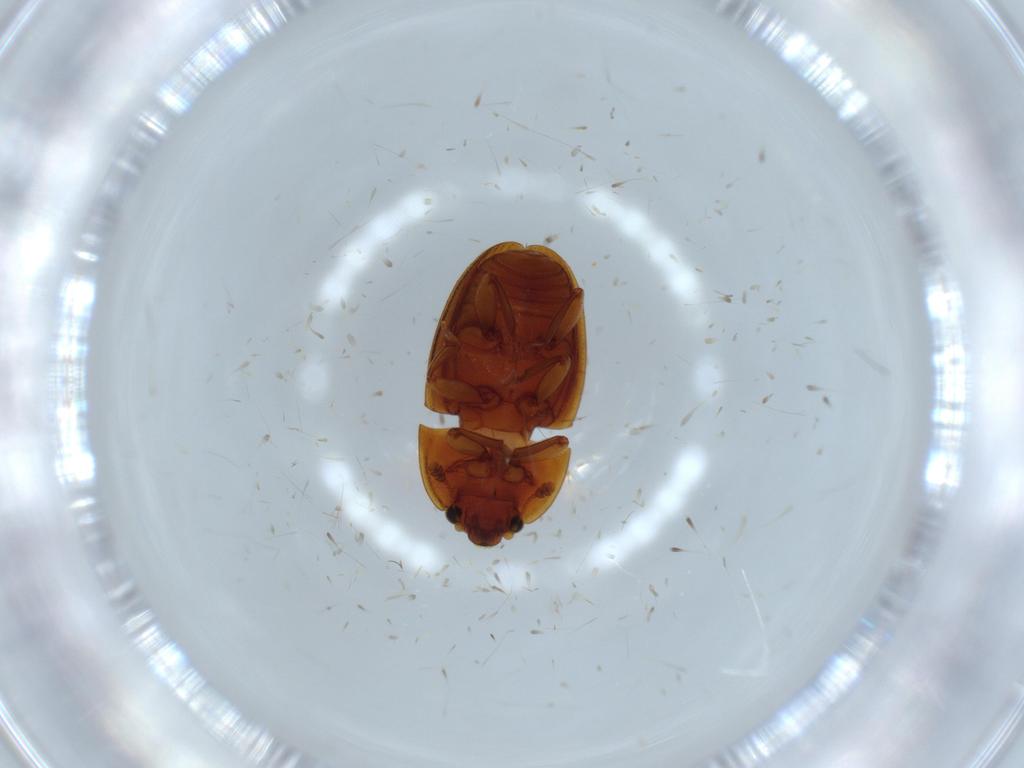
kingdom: Animalia
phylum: Arthropoda
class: Insecta
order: Coleoptera
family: Nitidulidae
